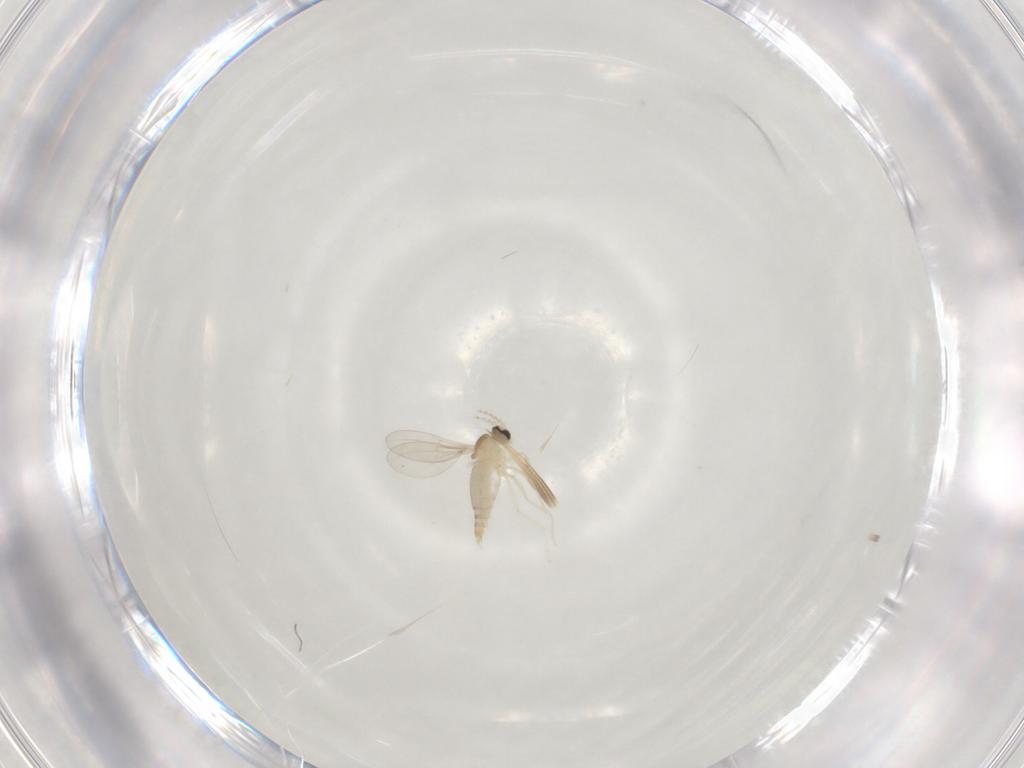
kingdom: Animalia
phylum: Arthropoda
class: Insecta
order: Diptera
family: Cecidomyiidae
